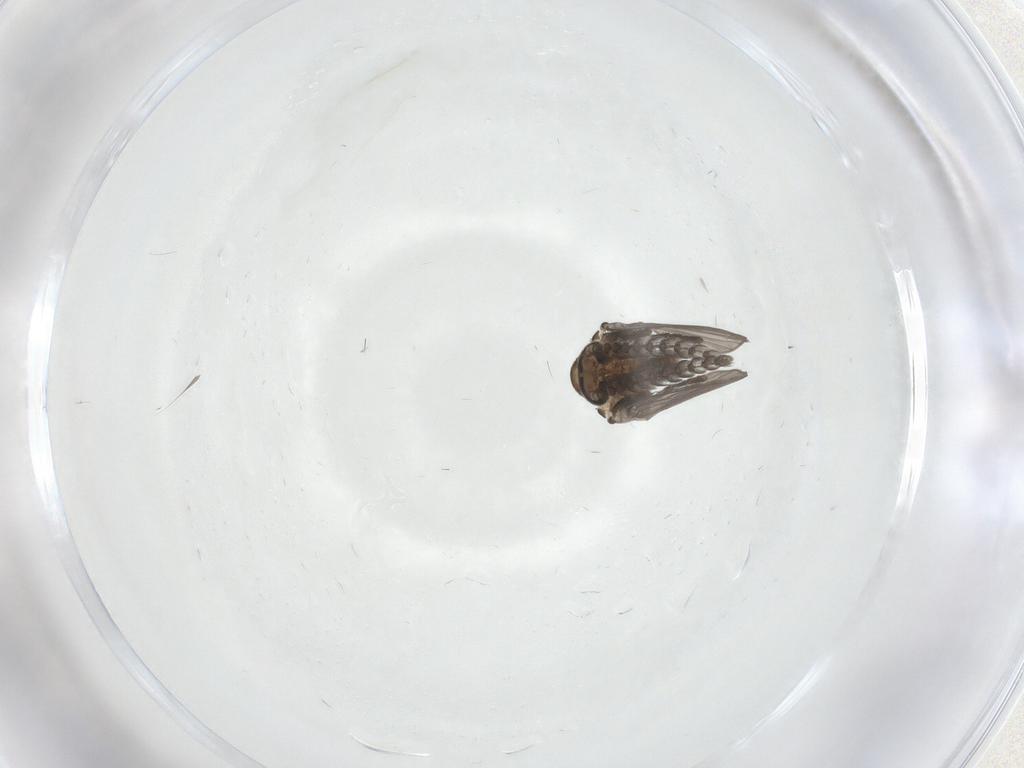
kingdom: Animalia
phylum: Arthropoda
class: Insecta
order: Diptera
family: Psychodidae
